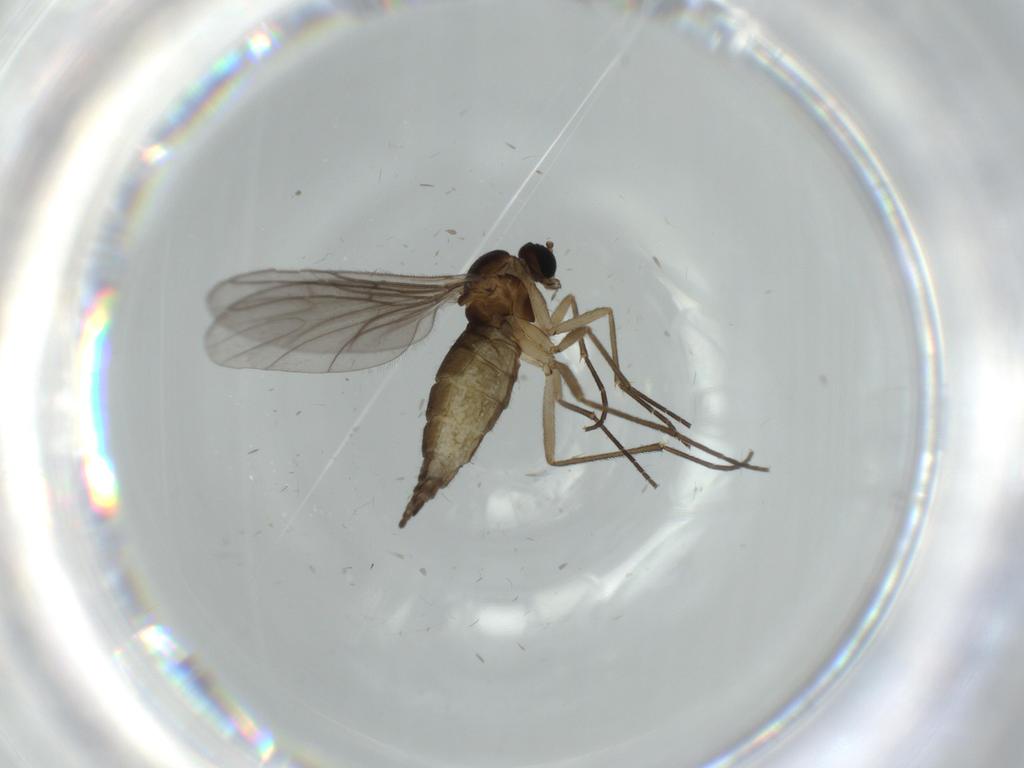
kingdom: Animalia
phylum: Arthropoda
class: Insecta
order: Diptera
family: Sciaridae
